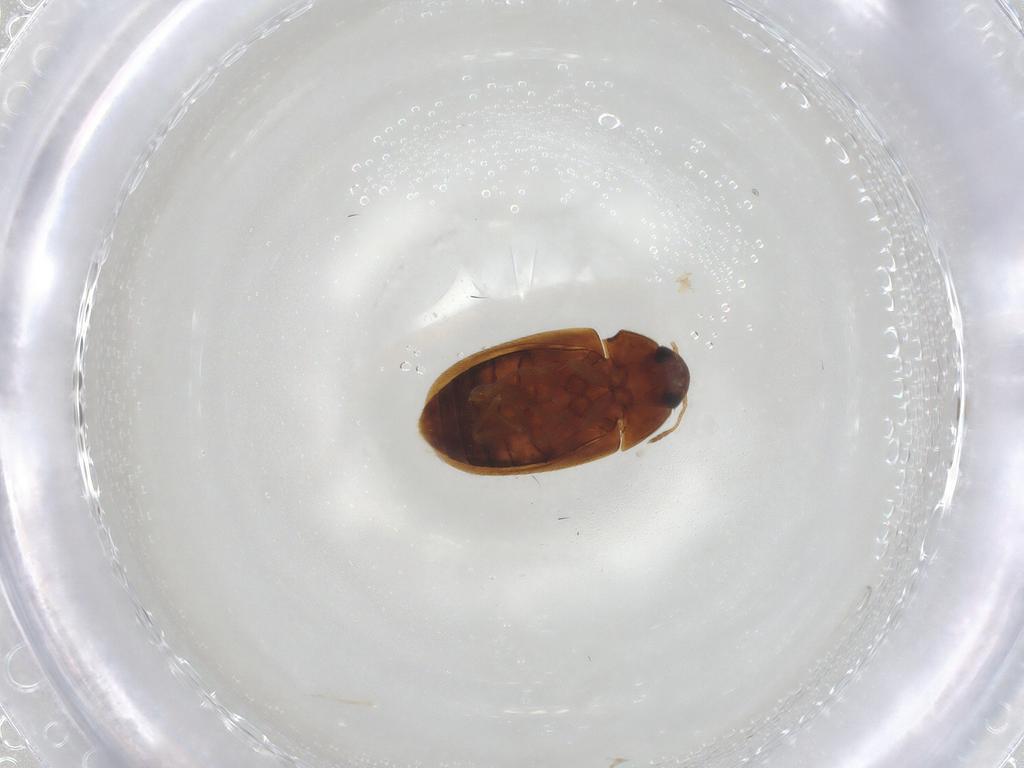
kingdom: Animalia
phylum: Arthropoda
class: Insecta
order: Coleoptera
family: Mycetophagidae
